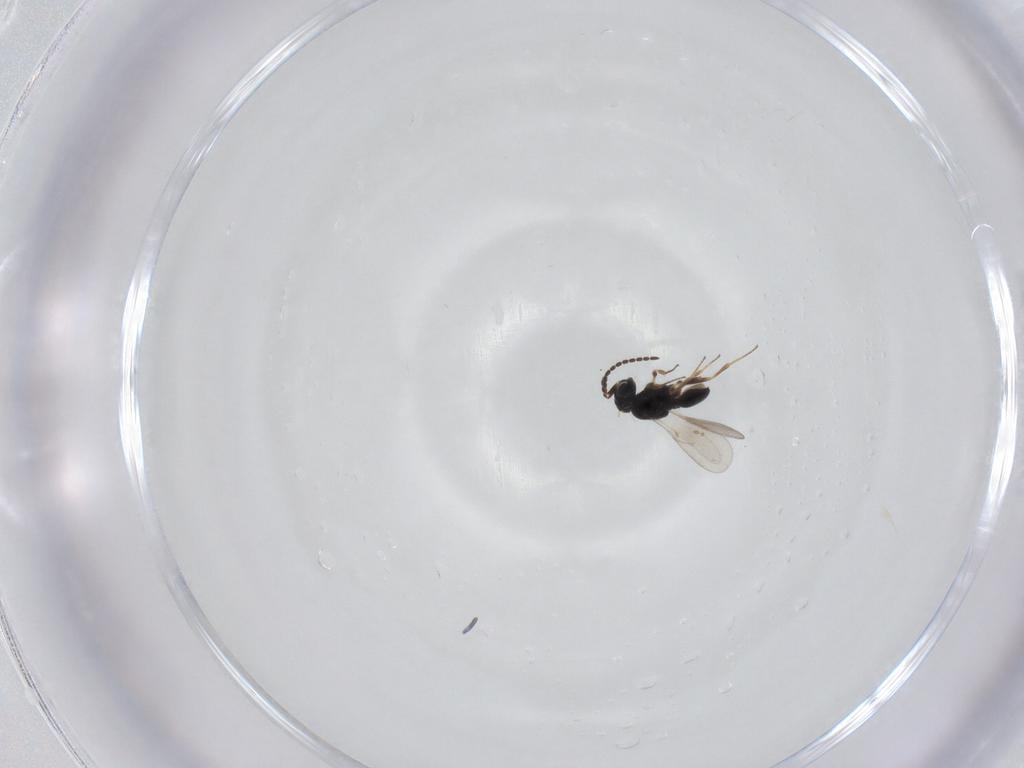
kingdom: Animalia
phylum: Arthropoda
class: Insecta
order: Hymenoptera
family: Scelionidae
